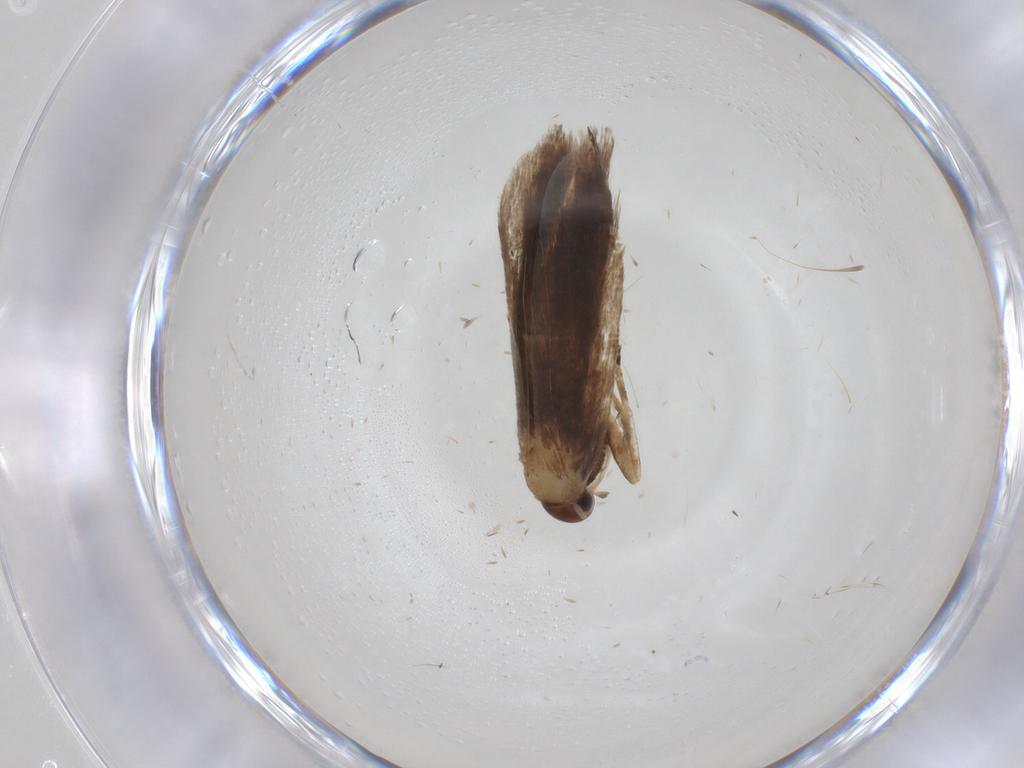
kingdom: Animalia
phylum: Arthropoda
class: Insecta
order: Lepidoptera
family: Gelechiidae
